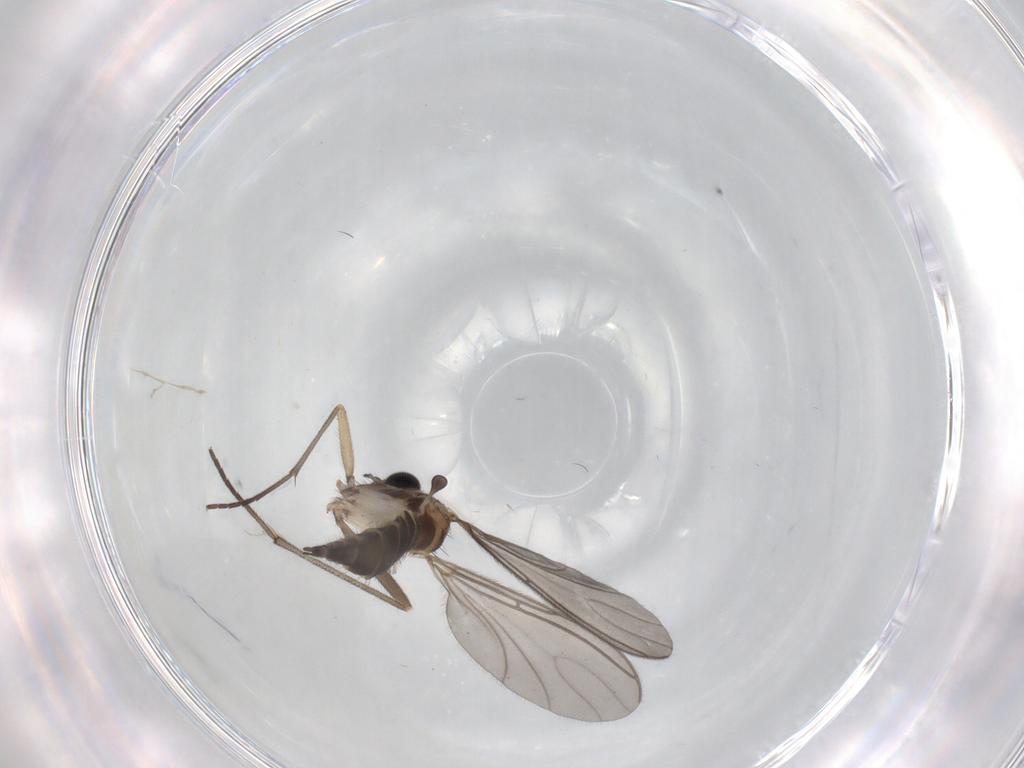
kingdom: Animalia
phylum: Arthropoda
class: Insecta
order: Diptera
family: Sciaridae
